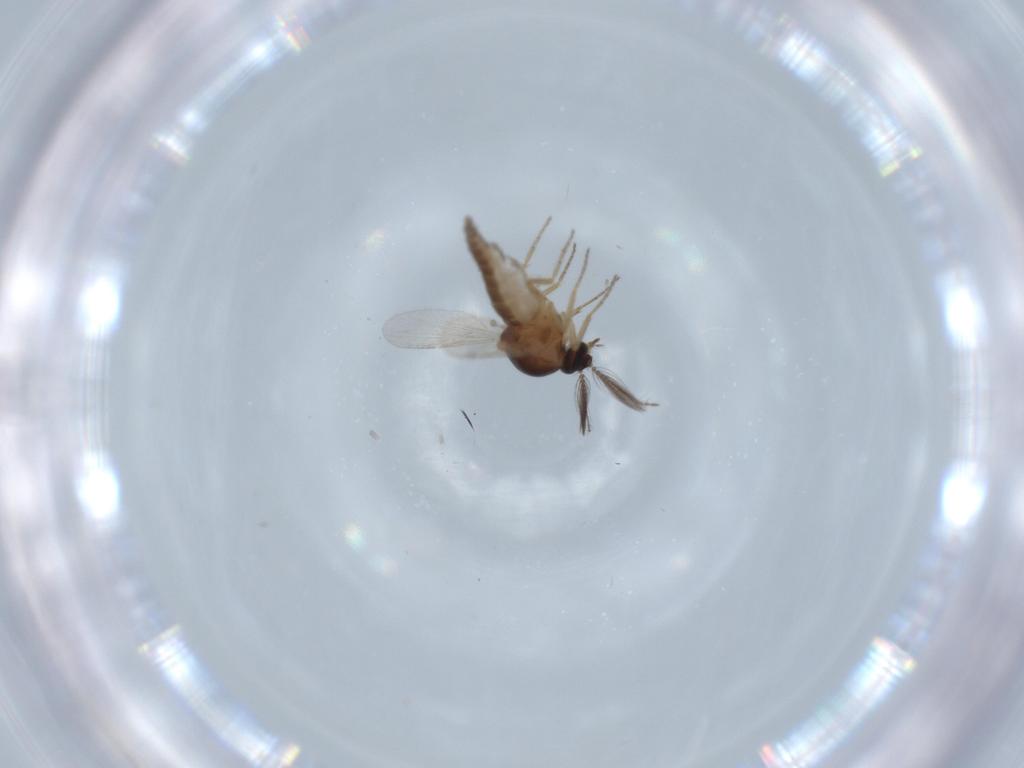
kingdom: Animalia
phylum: Arthropoda
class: Insecta
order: Diptera
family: Ceratopogonidae
